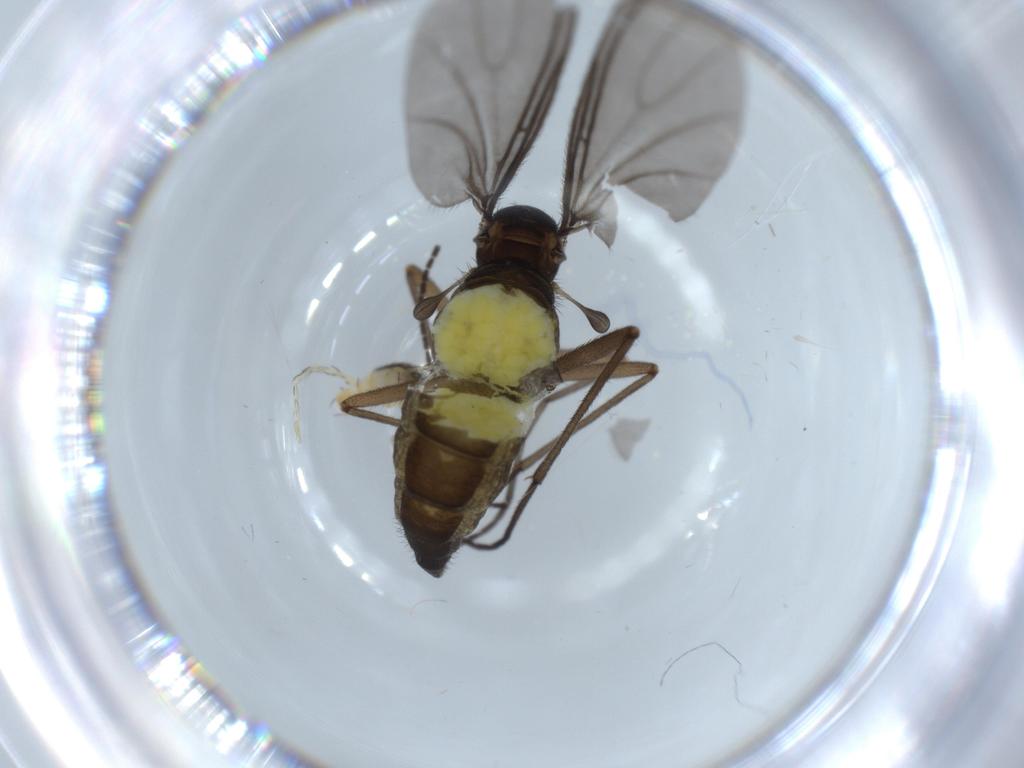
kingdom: Animalia
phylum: Arthropoda
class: Insecta
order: Diptera
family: Sciaridae
